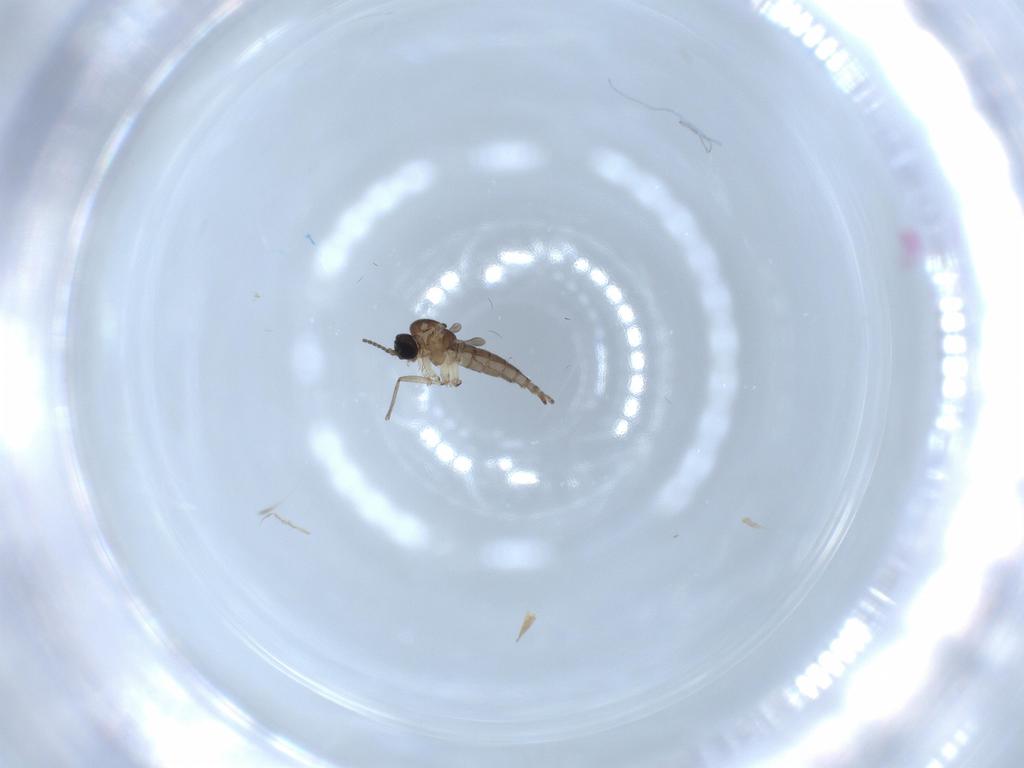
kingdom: Animalia
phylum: Arthropoda
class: Insecta
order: Diptera
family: Sciaridae
